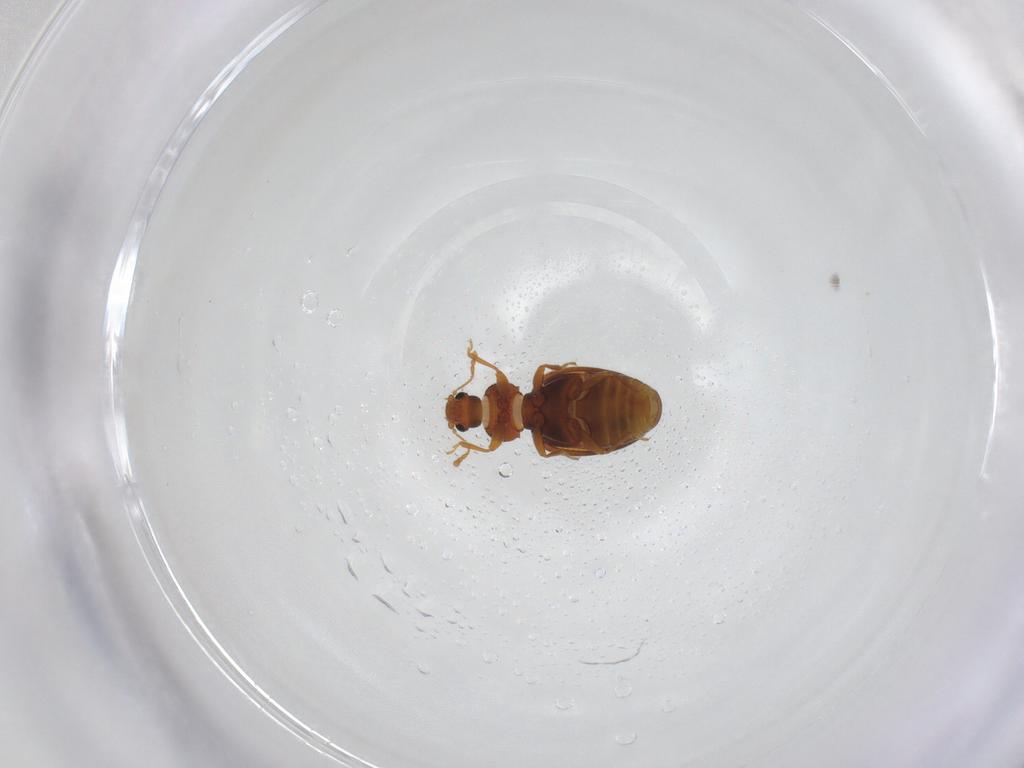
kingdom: Animalia
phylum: Arthropoda
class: Insecta
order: Coleoptera
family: Latridiidae
